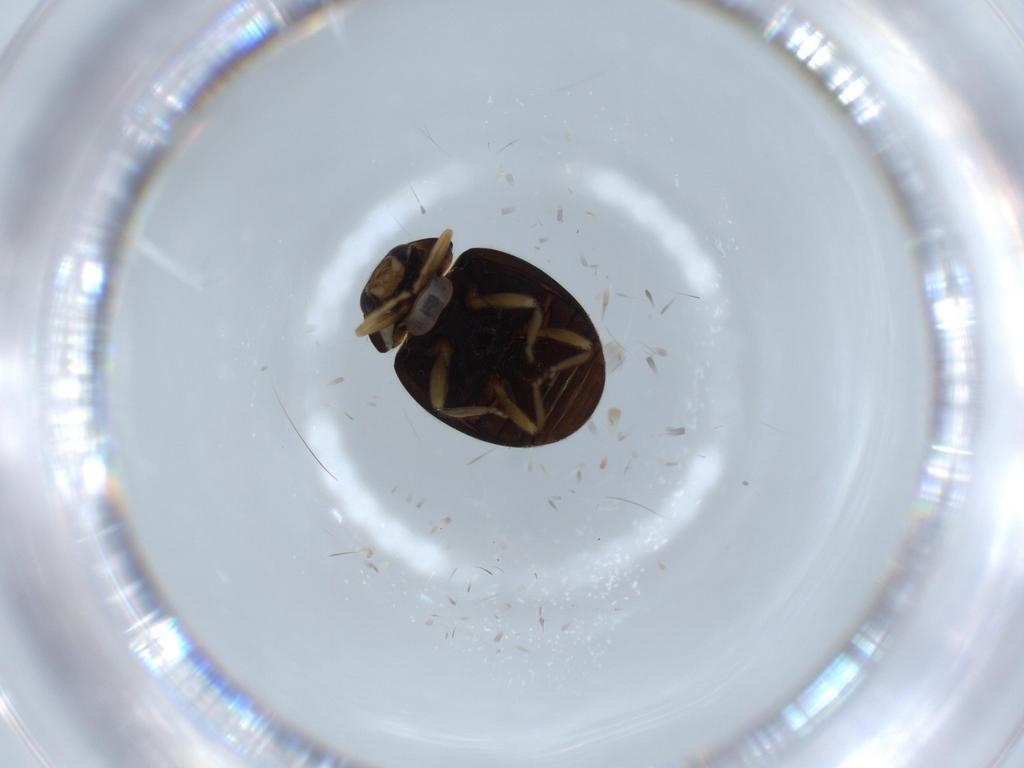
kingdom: Animalia
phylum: Arthropoda
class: Insecta
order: Coleoptera
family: Coccinellidae
